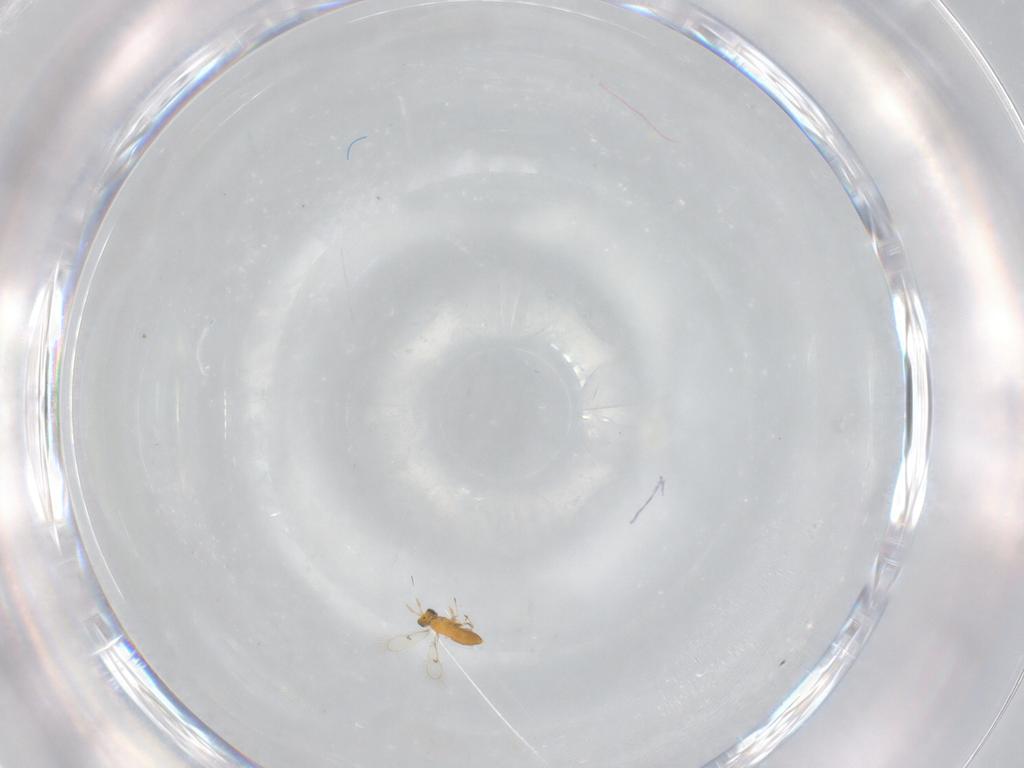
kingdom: Animalia
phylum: Arthropoda
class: Insecta
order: Hymenoptera
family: Trichogrammatidae
